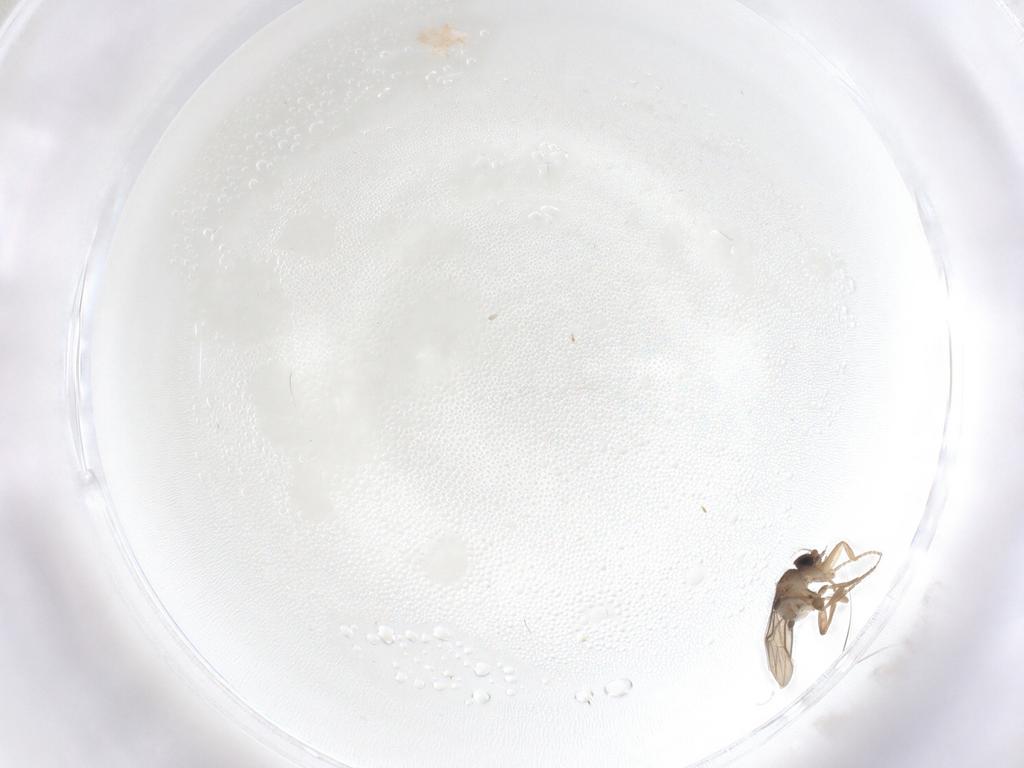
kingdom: Animalia
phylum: Arthropoda
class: Insecta
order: Diptera
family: Phoridae
